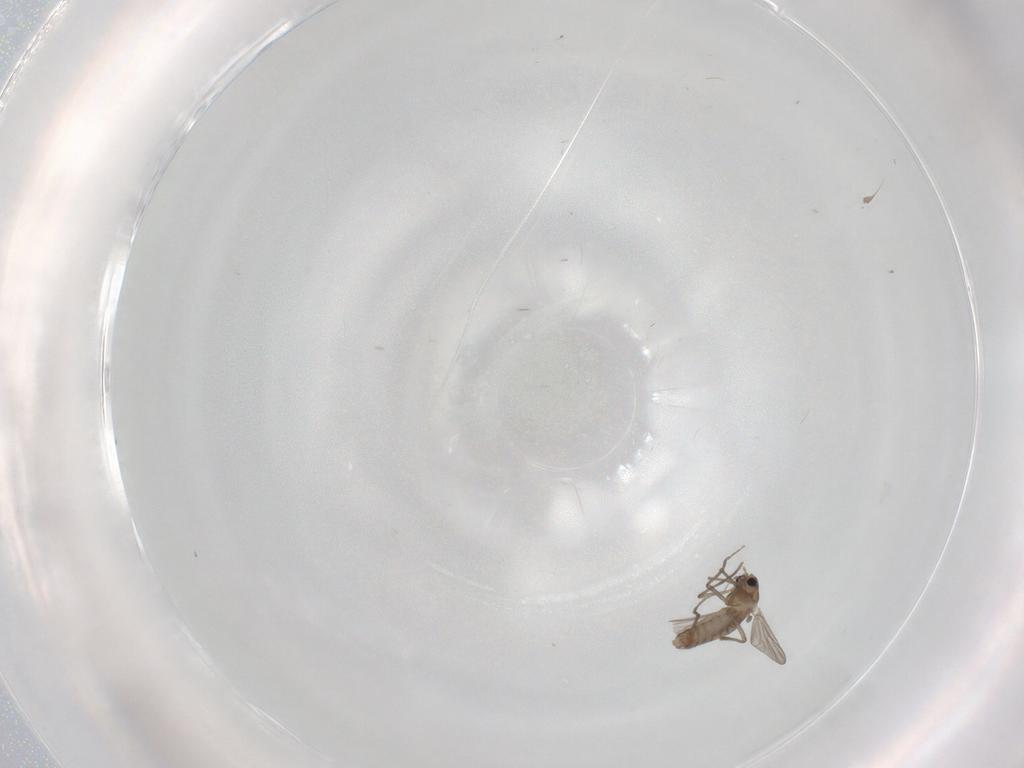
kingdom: Animalia
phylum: Arthropoda
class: Insecta
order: Diptera
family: Chironomidae
